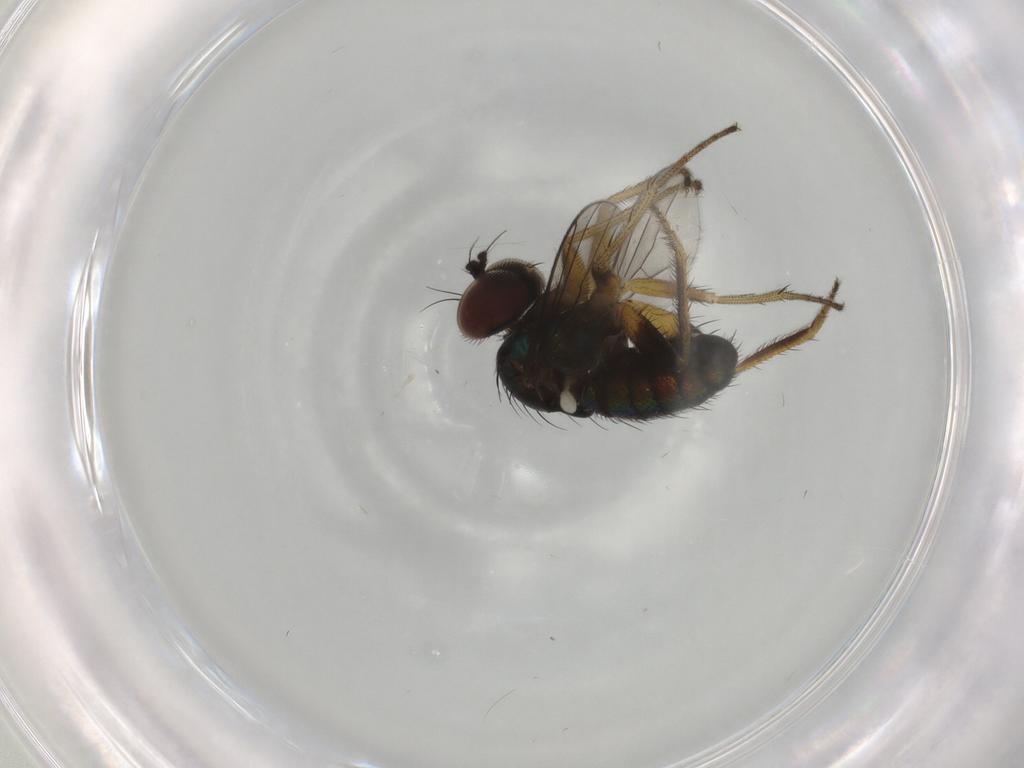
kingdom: Animalia
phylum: Arthropoda
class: Insecta
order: Diptera
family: Dolichopodidae
